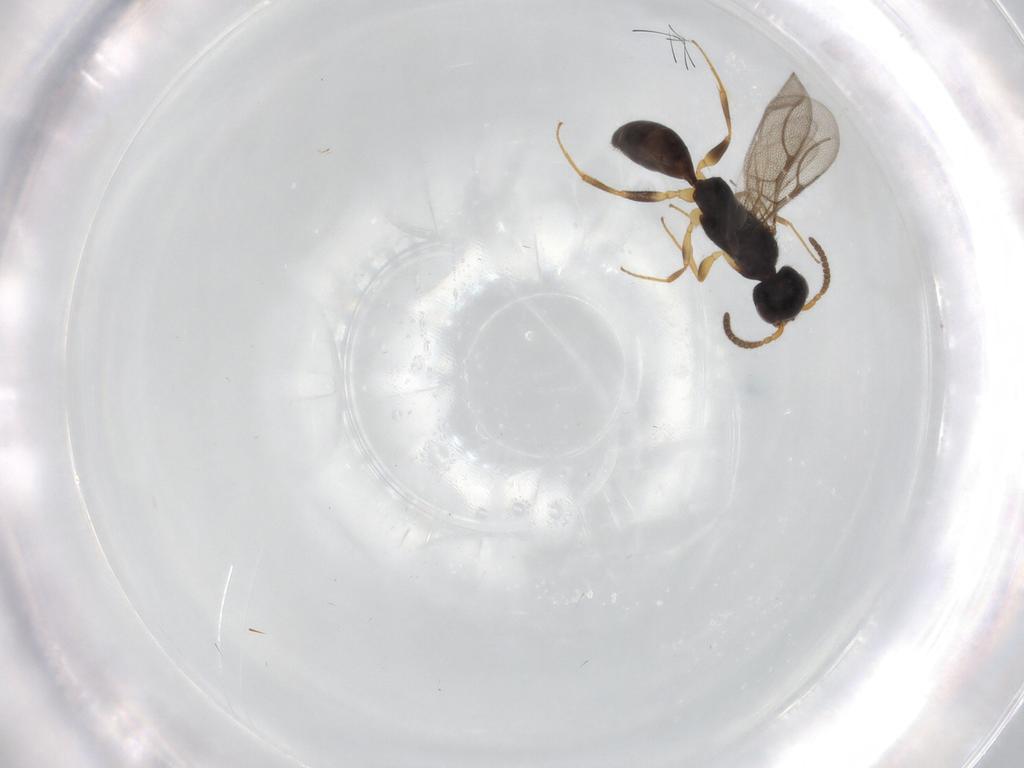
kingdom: Animalia
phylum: Arthropoda
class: Insecta
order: Hymenoptera
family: Bethylidae
